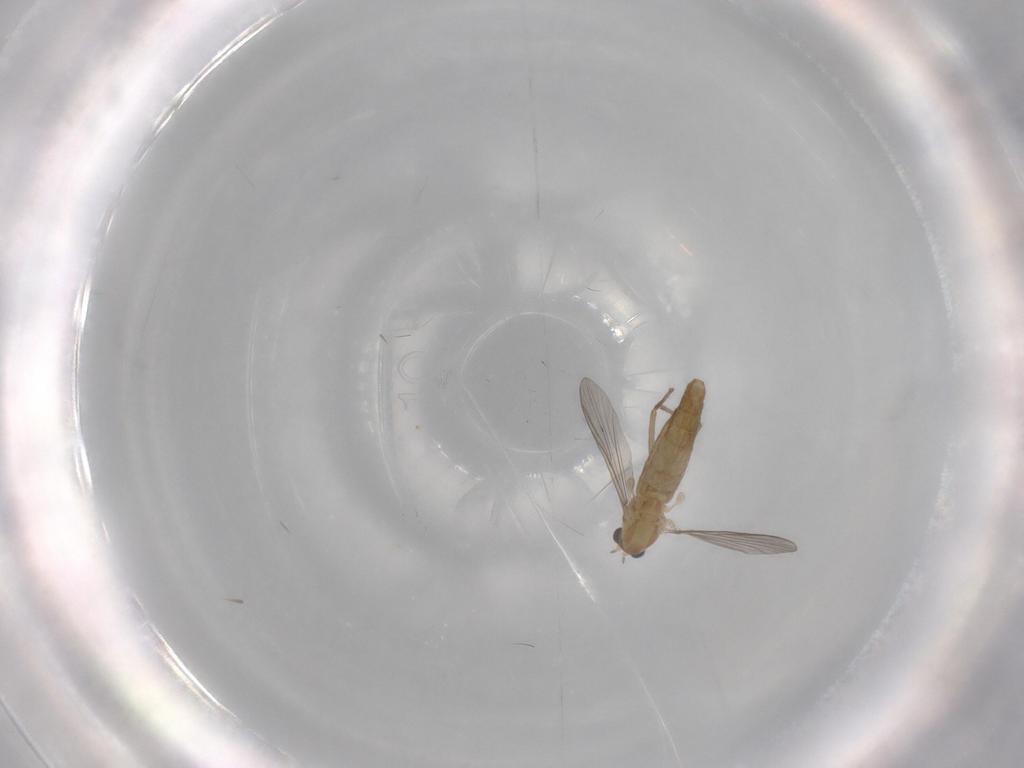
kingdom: Animalia
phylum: Arthropoda
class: Insecta
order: Diptera
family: Chironomidae
